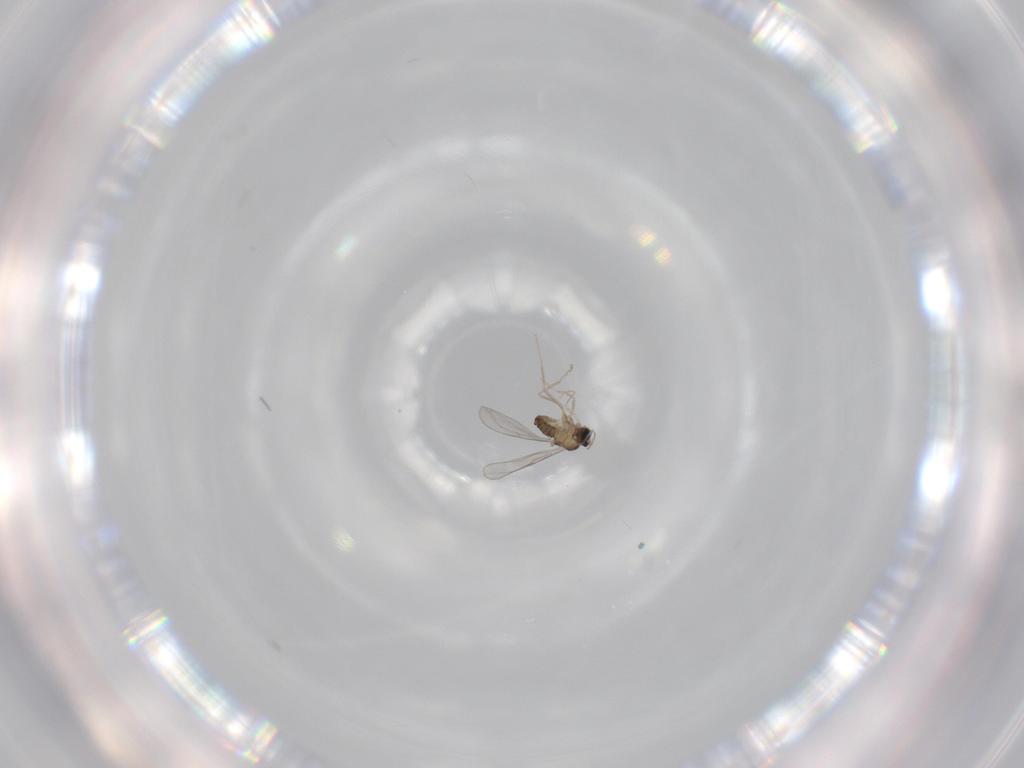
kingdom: Animalia
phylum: Arthropoda
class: Insecta
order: Diptera
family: Cecidomyiidae
